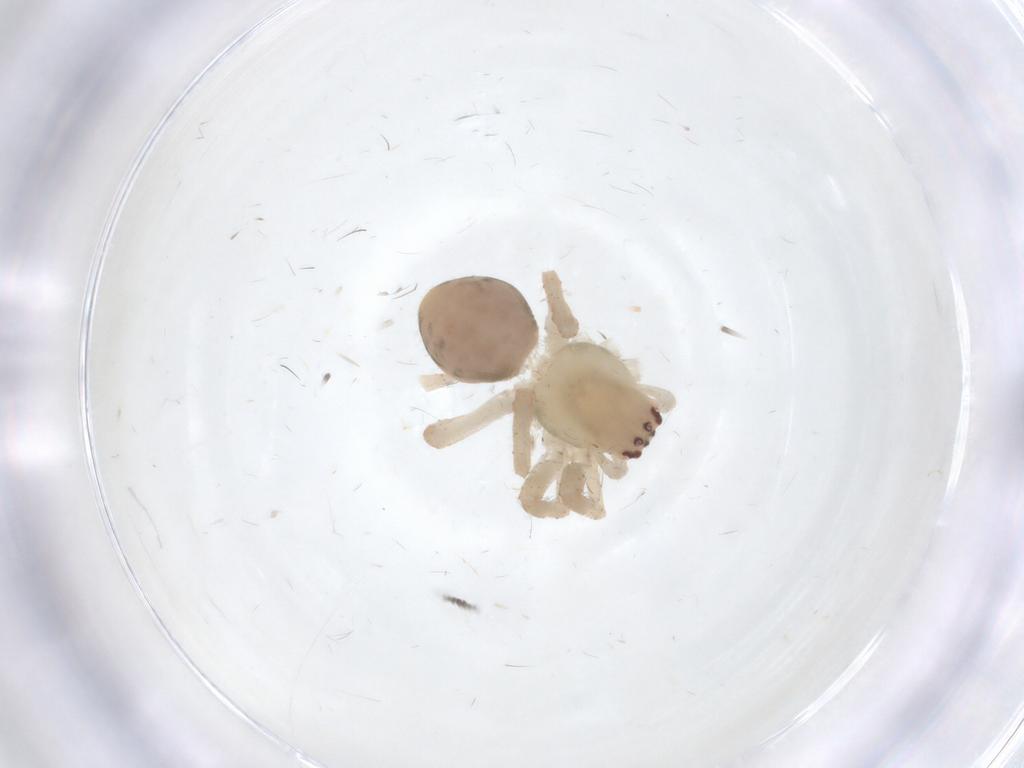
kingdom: Animalia
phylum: Arthropoda
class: Arachnida
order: Araneae
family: Dictynidae
